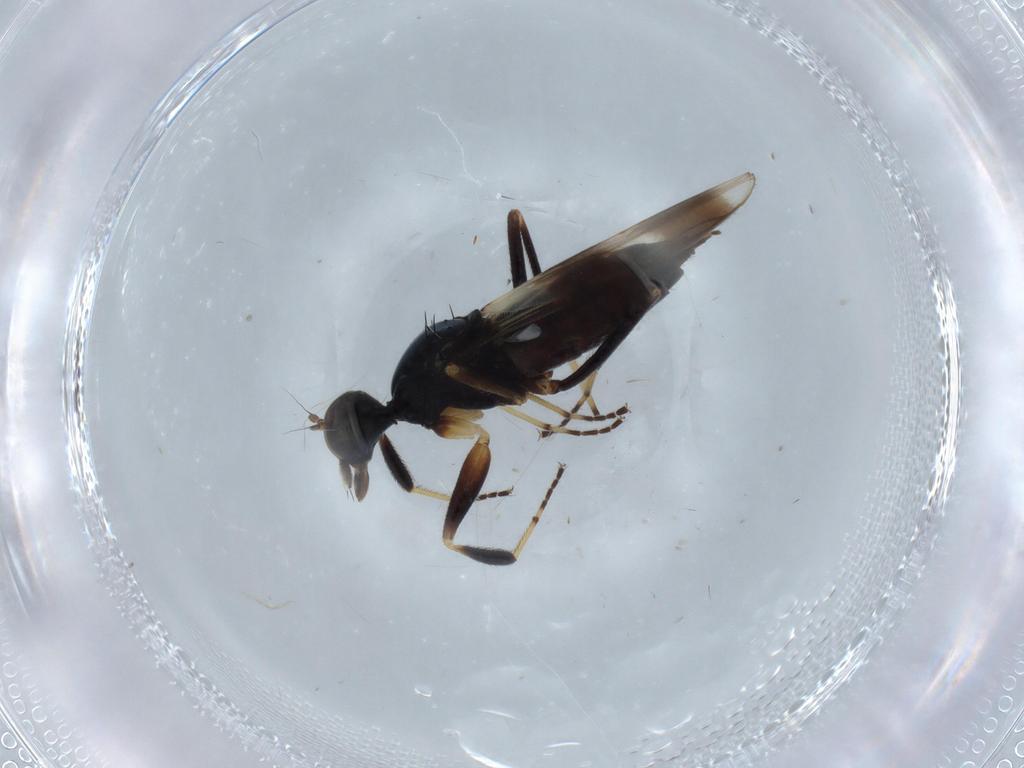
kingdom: Animalia
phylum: Arthropoda
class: Insecta
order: Diptera
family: Hybotidae
